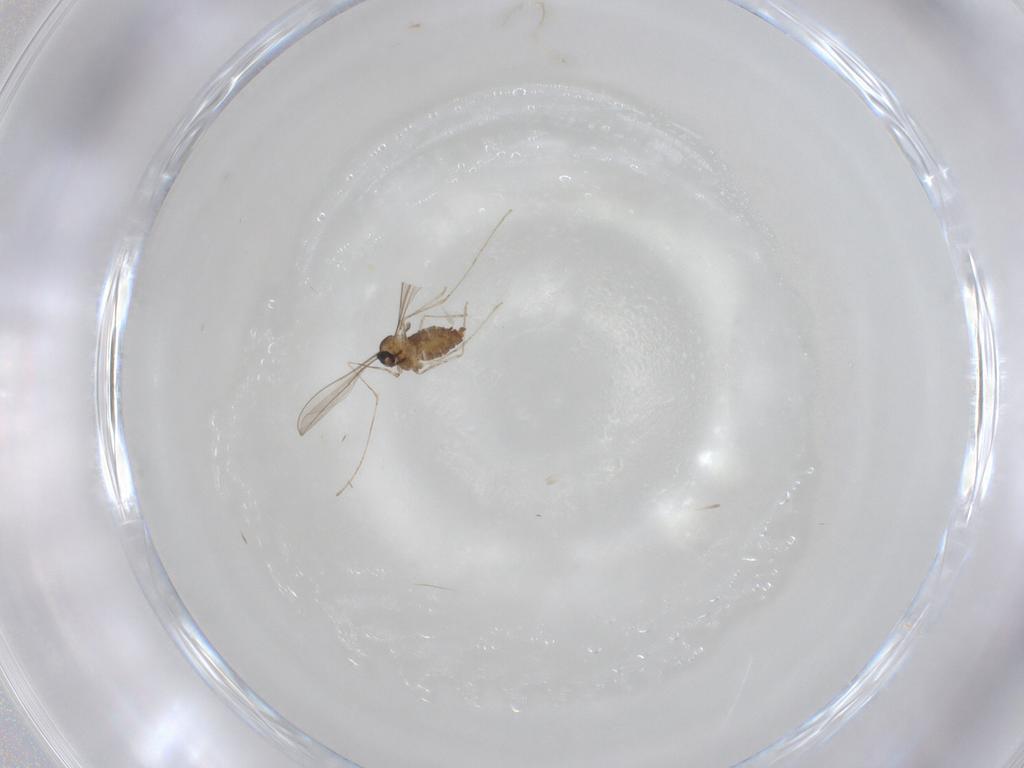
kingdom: Animalia
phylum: Arthropoda
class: Insecta
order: Diptera
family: Cecidomyiidae
